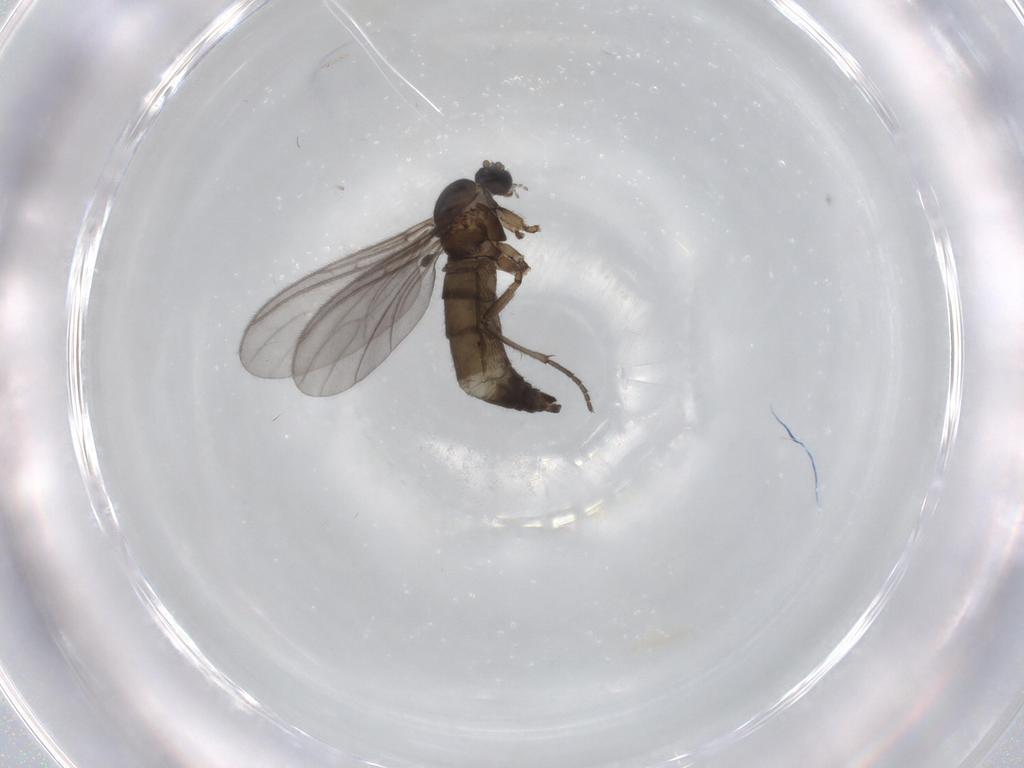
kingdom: Animalia
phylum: Arthropoda
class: Insecta
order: Diptera
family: Sciaridae
